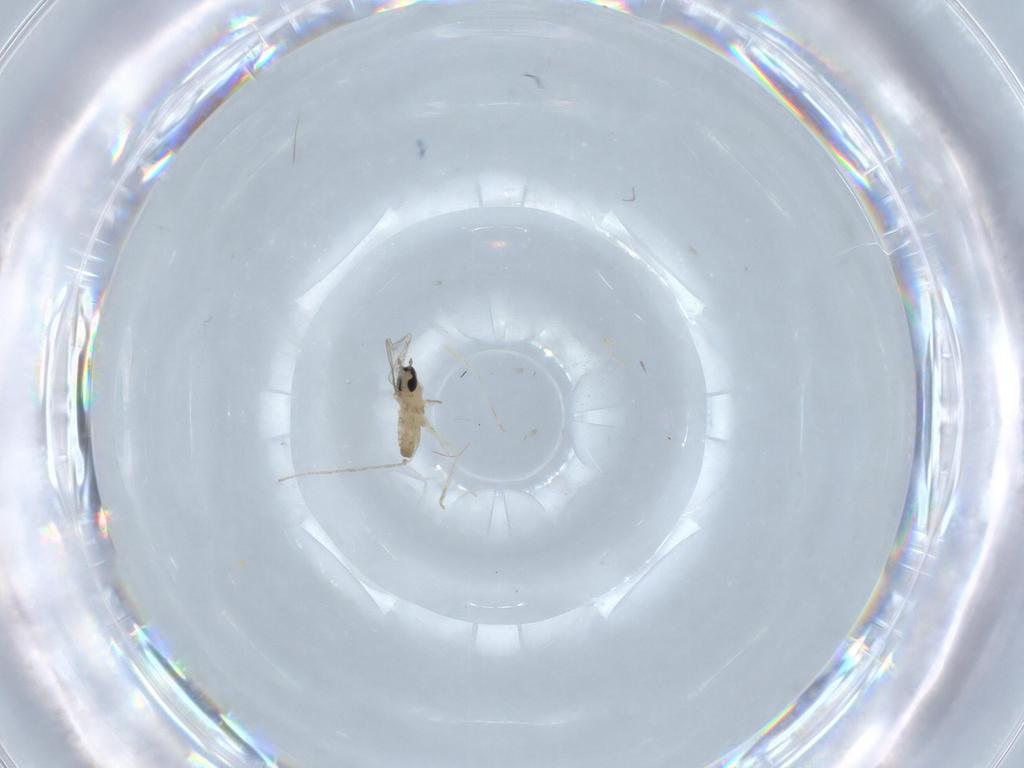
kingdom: Animalia
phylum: Arthropoda
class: Insecta
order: Diptera
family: Cecidomyiidae
